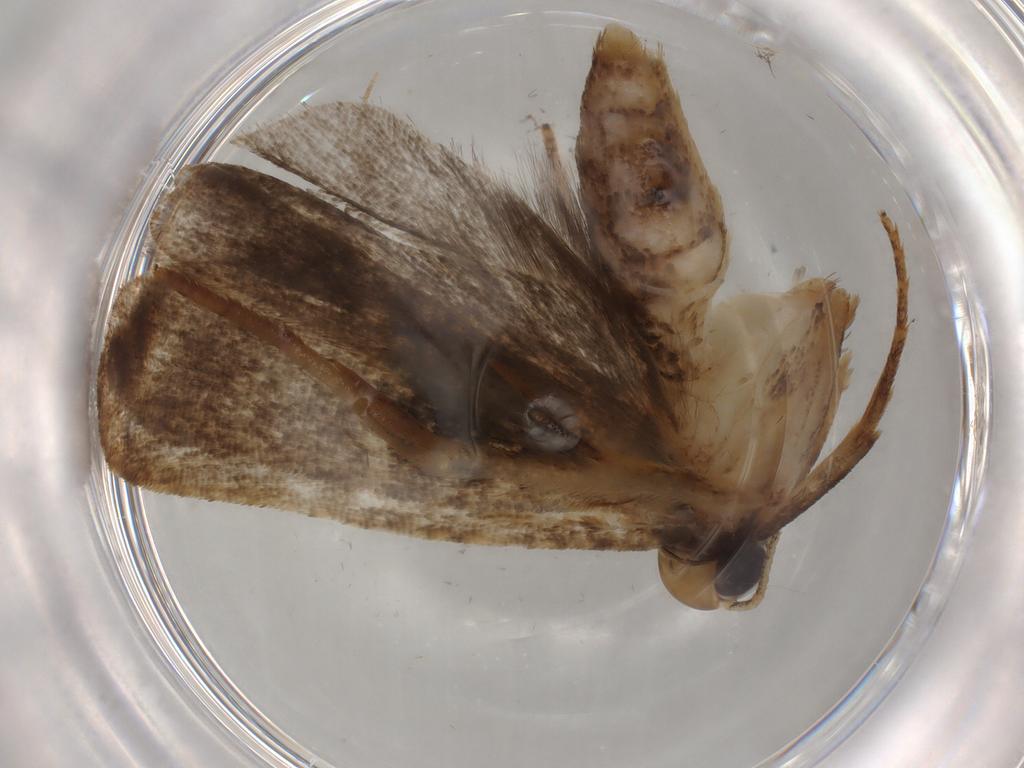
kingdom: Animalia
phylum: Arthropoda
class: Insecta
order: Lepidoptera
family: Gelechiidae
